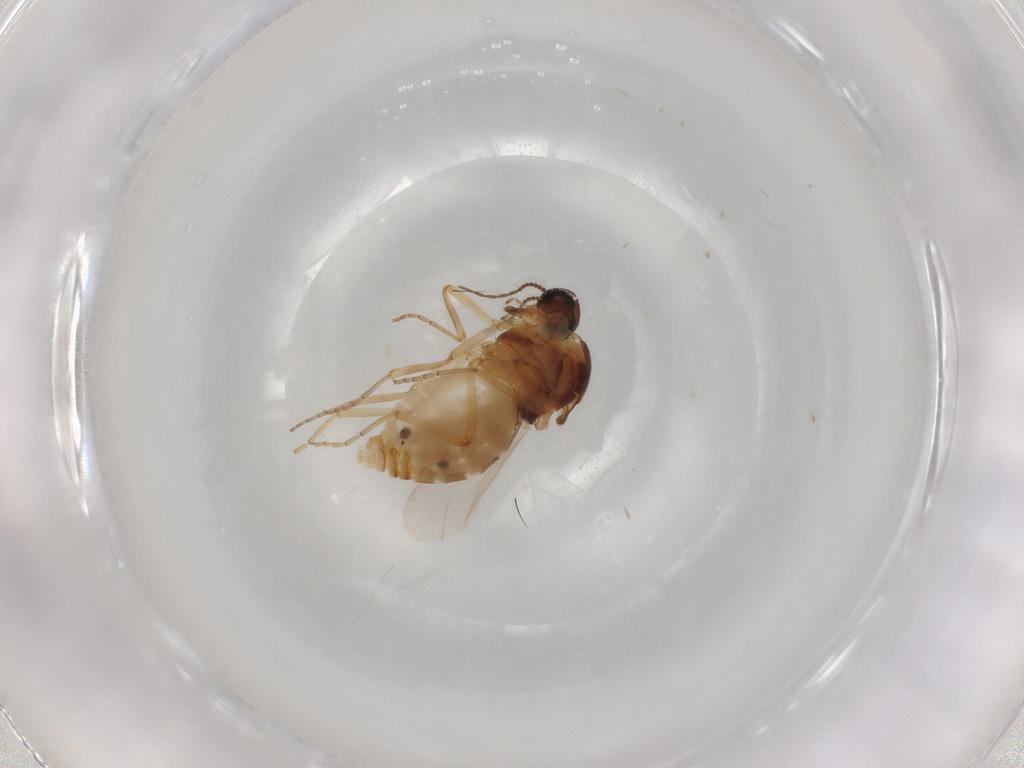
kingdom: Animalia
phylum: Arthropoda
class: Insecta
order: Diptera
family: Ceratopogonidae
